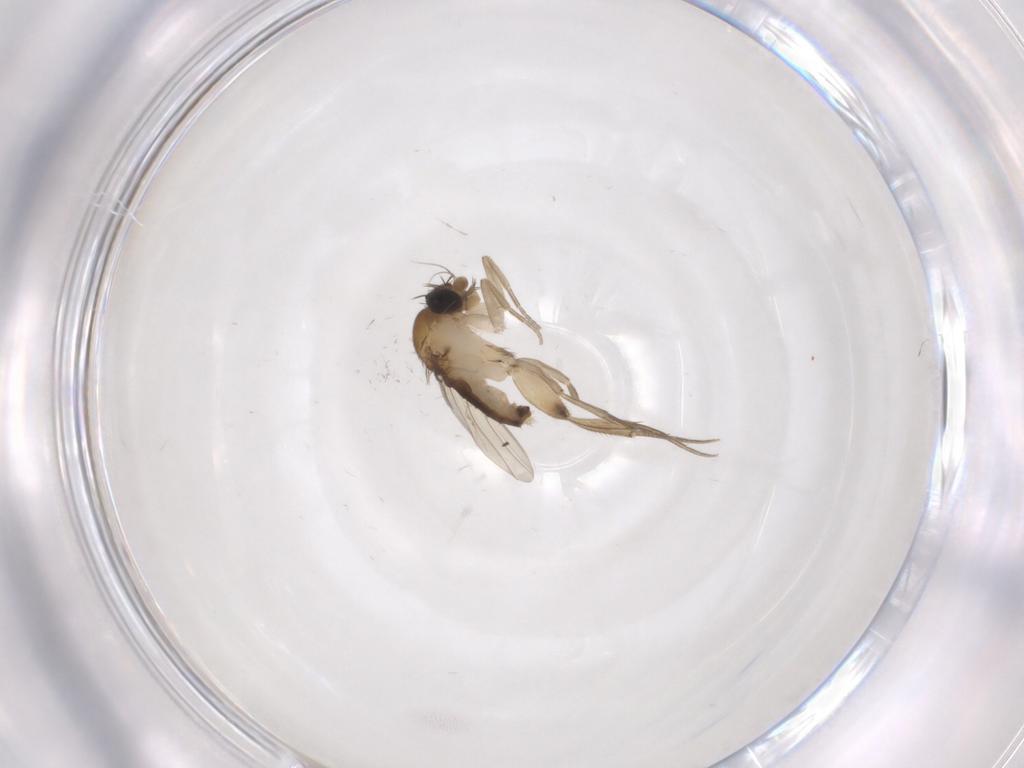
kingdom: Animalia
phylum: Arthropoda
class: Insecta
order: Diptera
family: Phoridae
